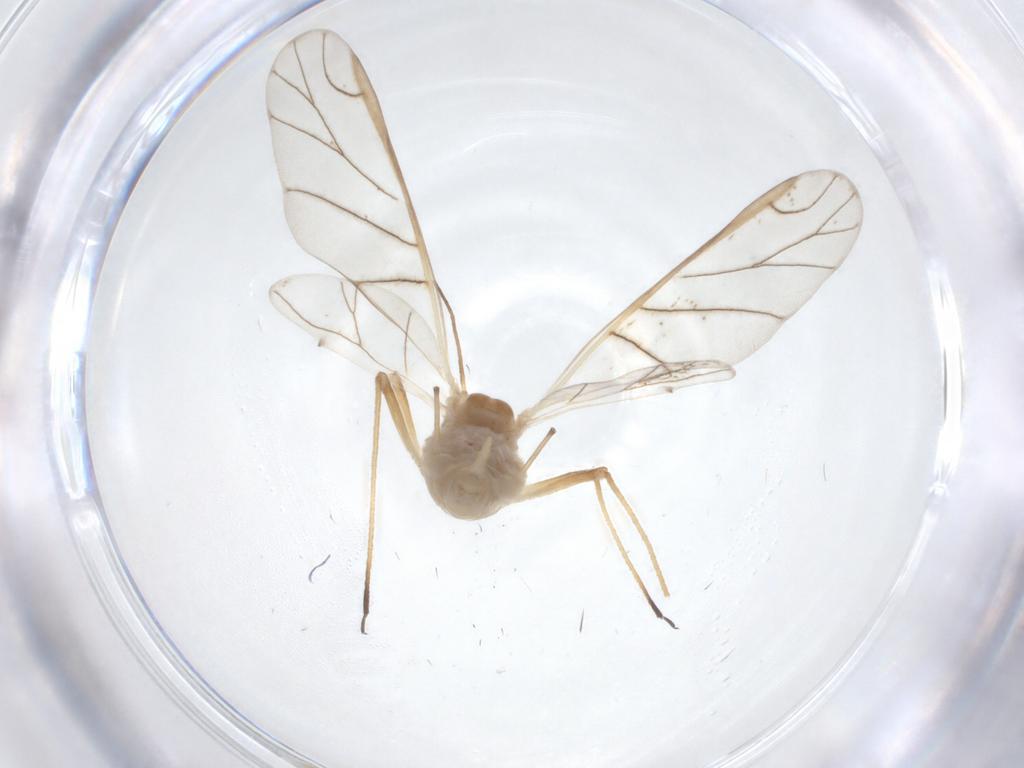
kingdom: Animalia
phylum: Arthropoda
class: Insecta
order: Hemiptera
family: Aphididae
